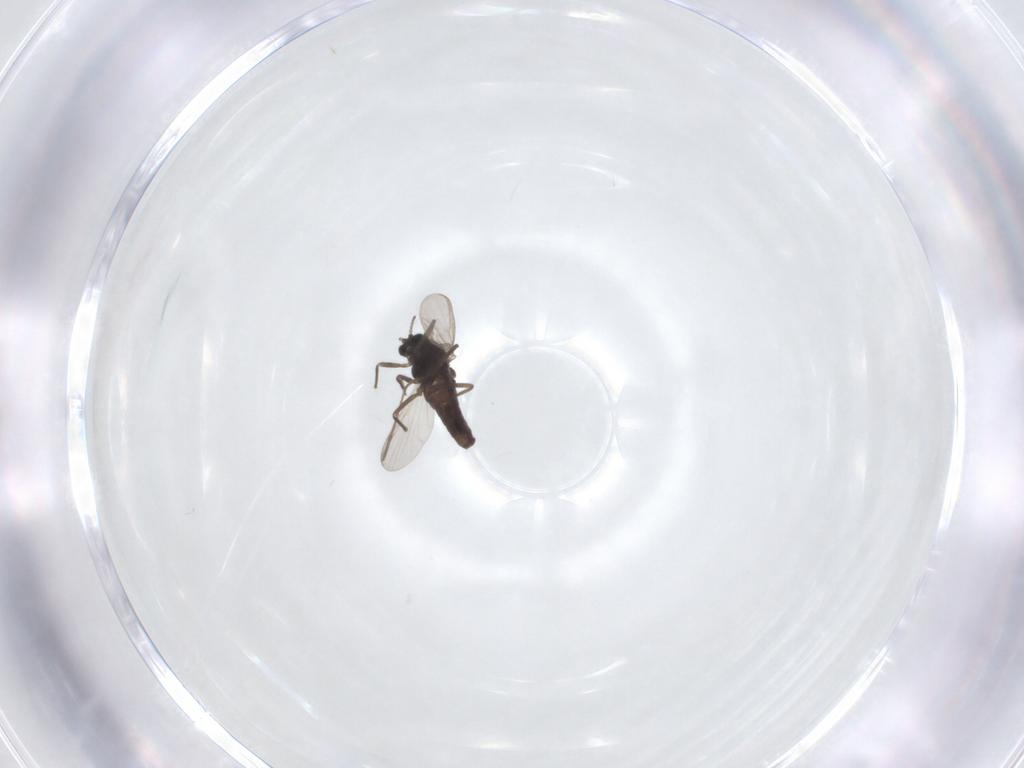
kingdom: Animalia
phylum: Arthropoda
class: Insecta
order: Diptera
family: Chironomidae
